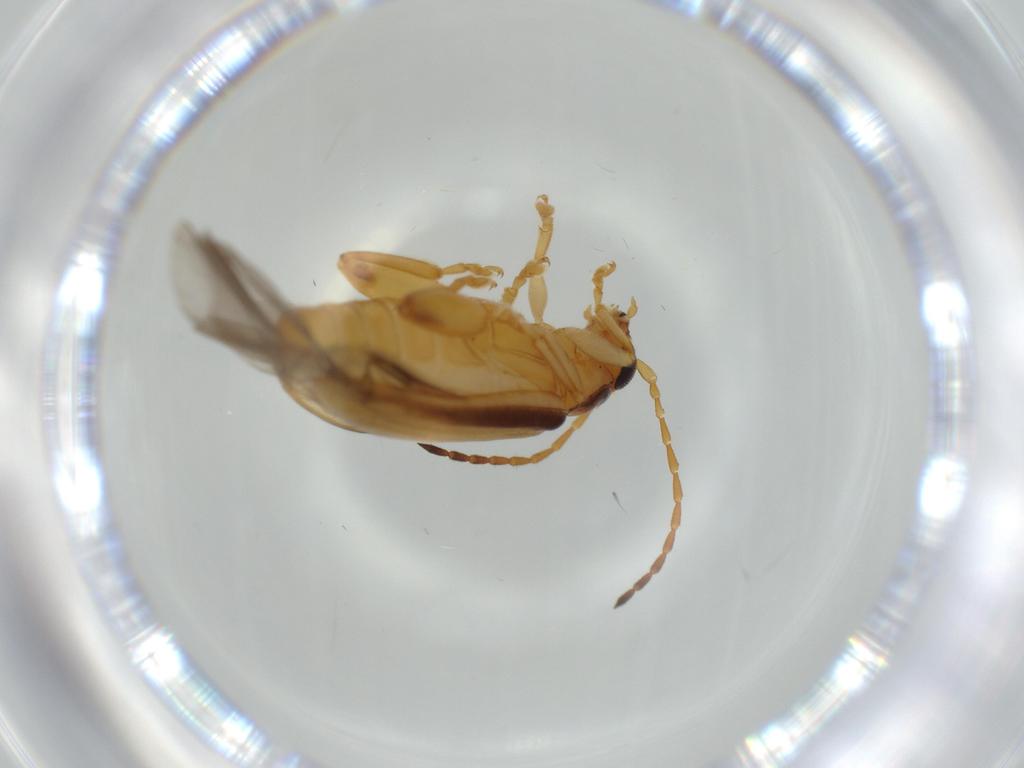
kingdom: Animalia
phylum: Arthropoda
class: Insecta
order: Coleoptera
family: Chrysomelidae
